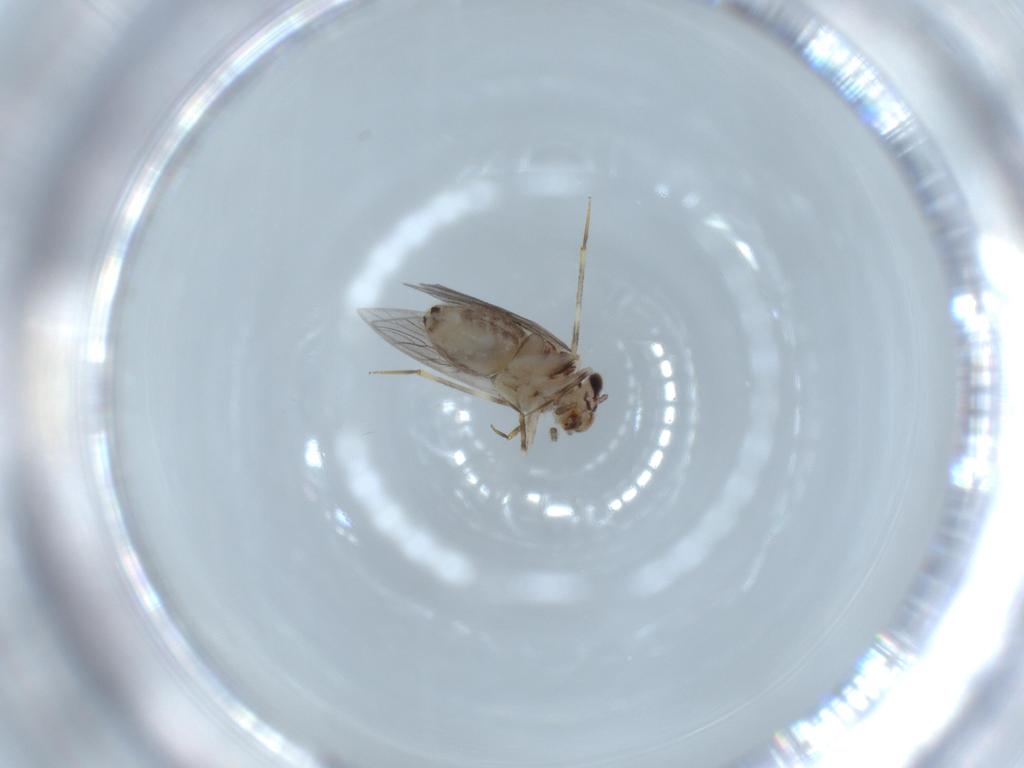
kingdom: Animalia
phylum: Arthropoda
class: Insecta
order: Psocodea
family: Lepidopsocidae
